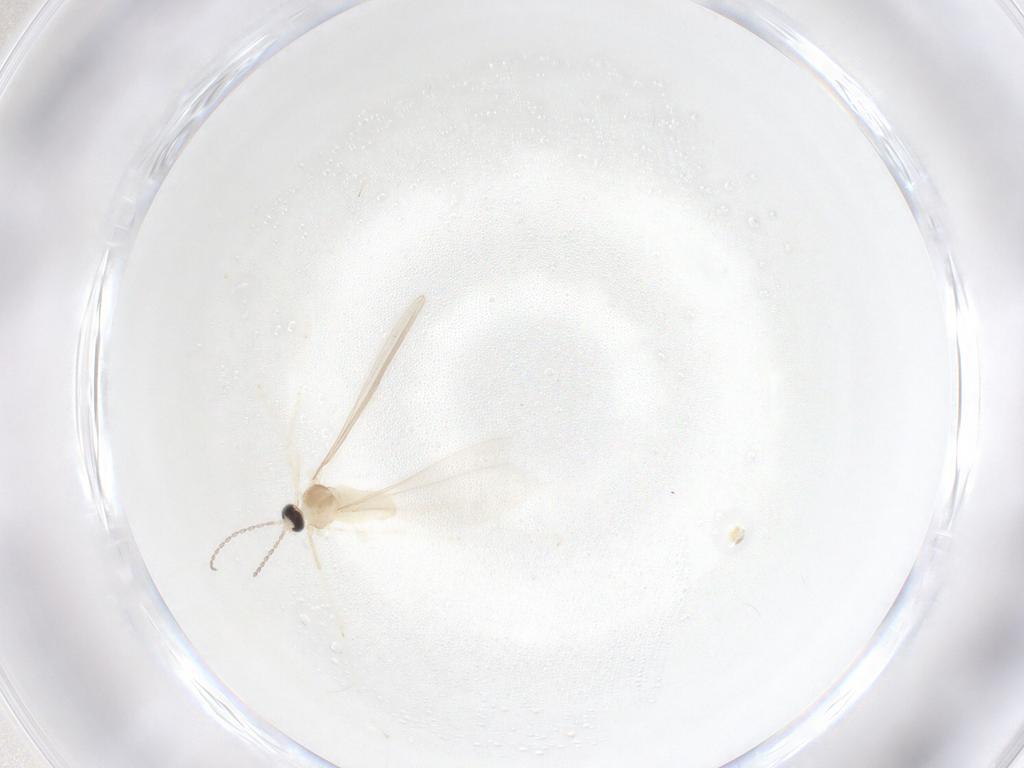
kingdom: Animalia
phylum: Arthropoda
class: Insecta
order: Diptera
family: Cecidomyiidae
